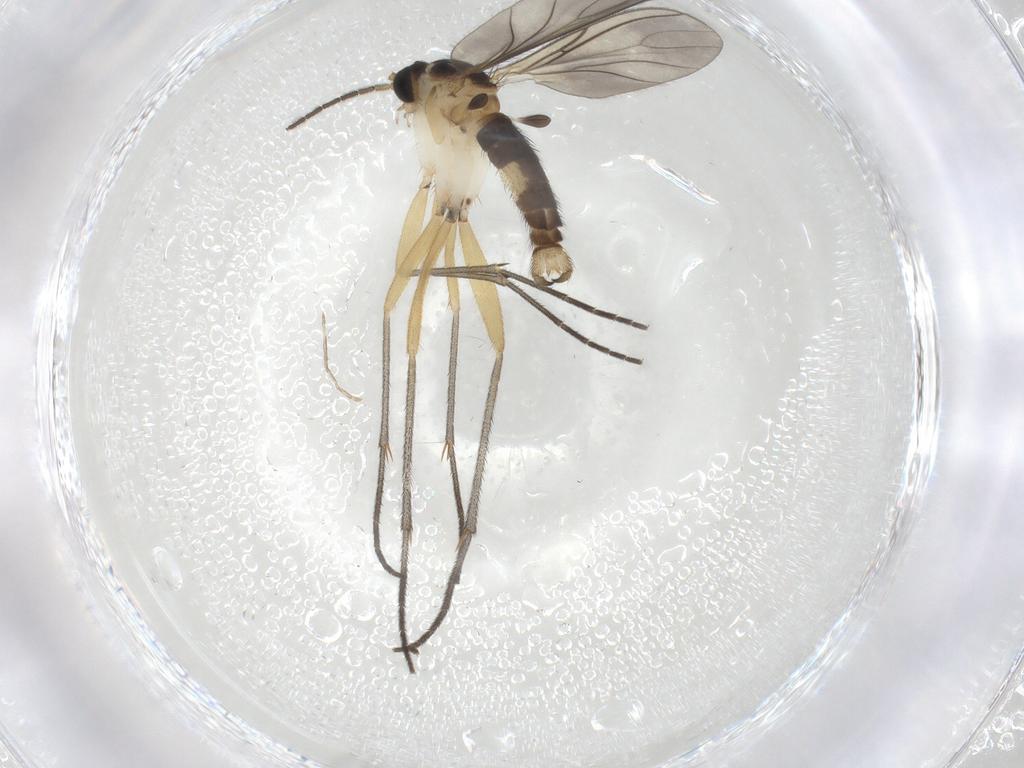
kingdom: Animalia
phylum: Arthropoda
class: Insecta
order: Diptera
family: Sciaridae
